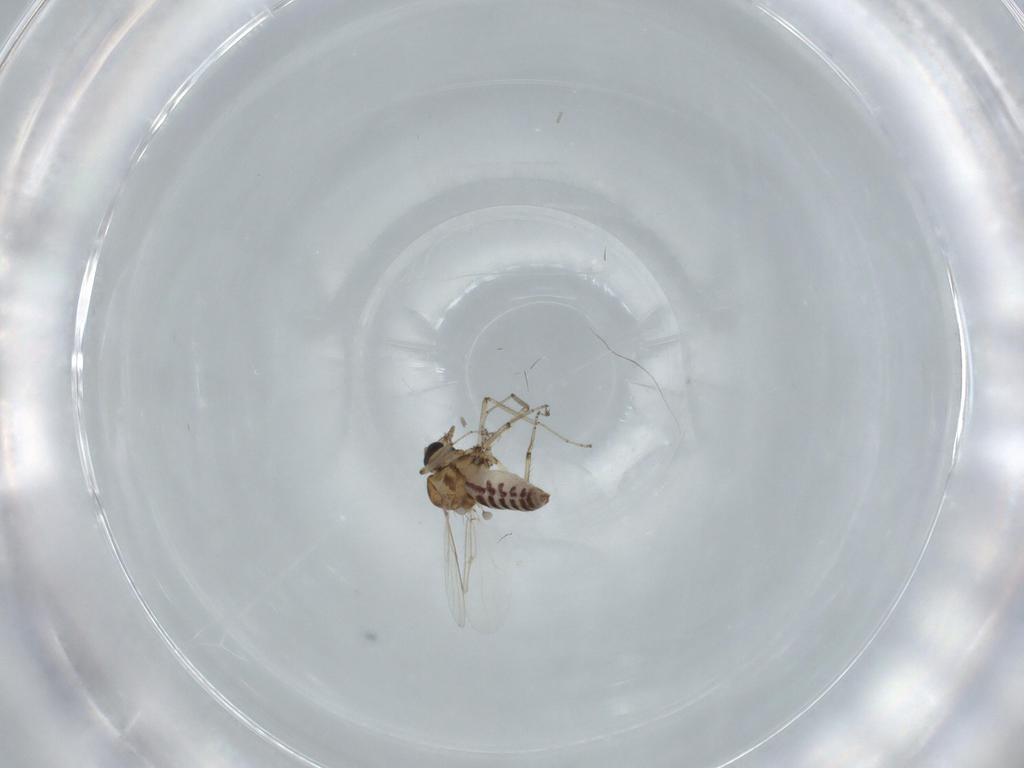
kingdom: Animalia
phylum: Arthropoda
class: Insecta
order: Diptera
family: Ceratopogonidae
